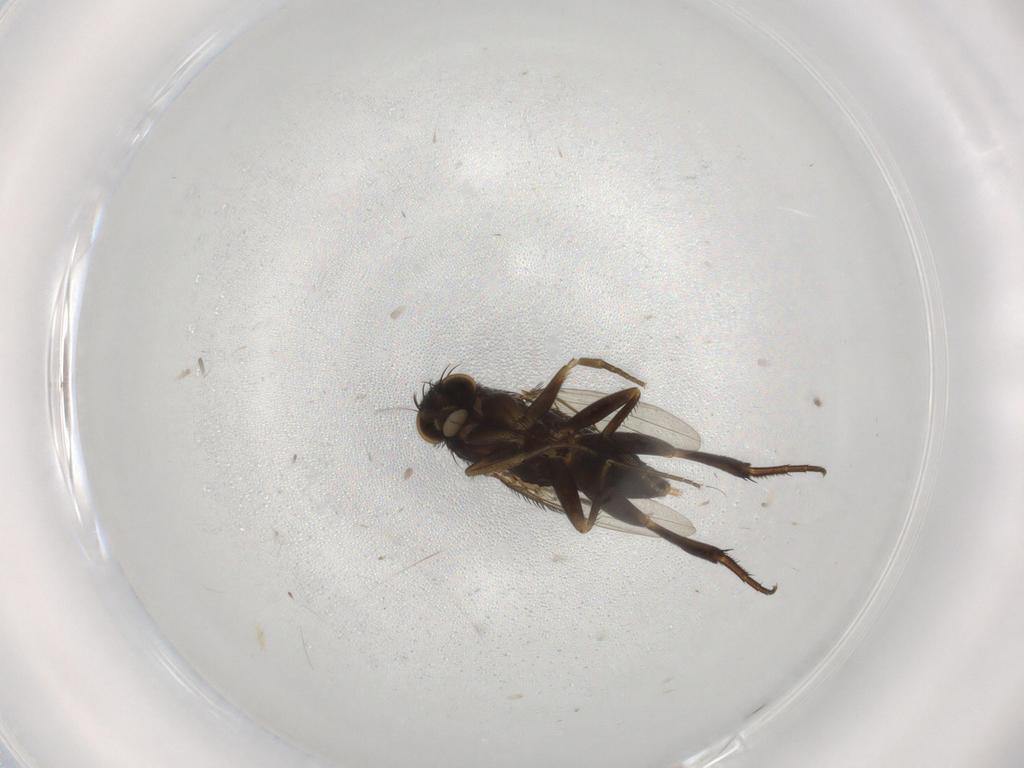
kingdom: Animalia
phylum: Arthropoda
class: Insecta
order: Diptera
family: Phoridae
